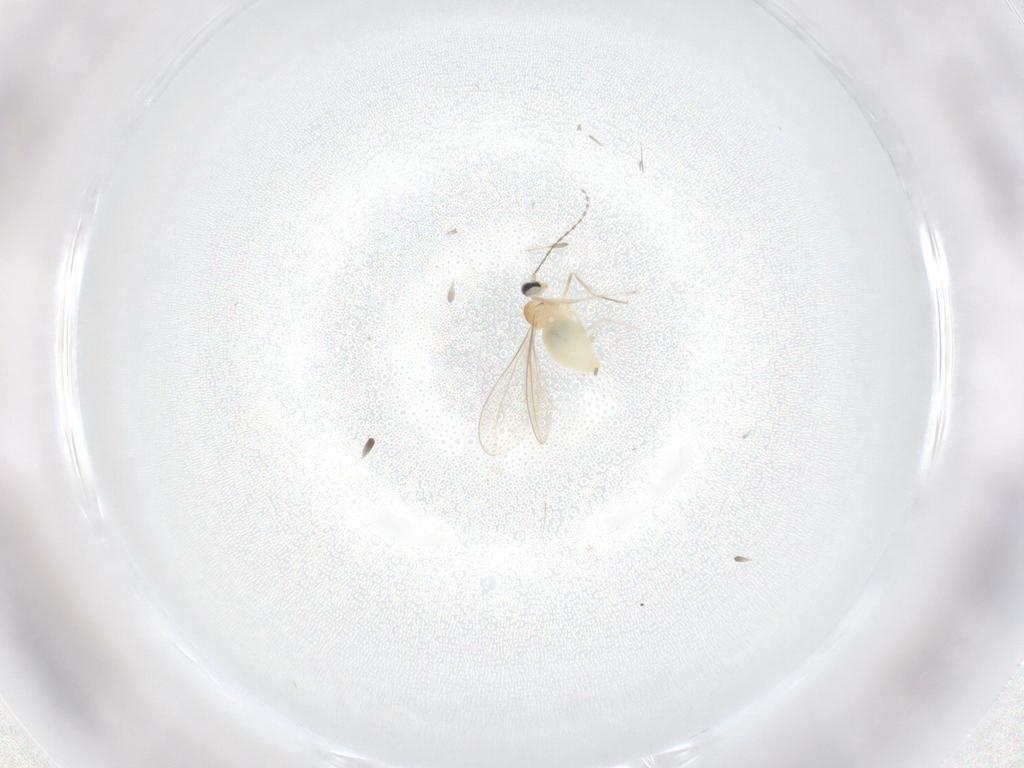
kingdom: Animalia
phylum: Arthropoda
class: Insecta
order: Diptera
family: Cecidomyiidae
